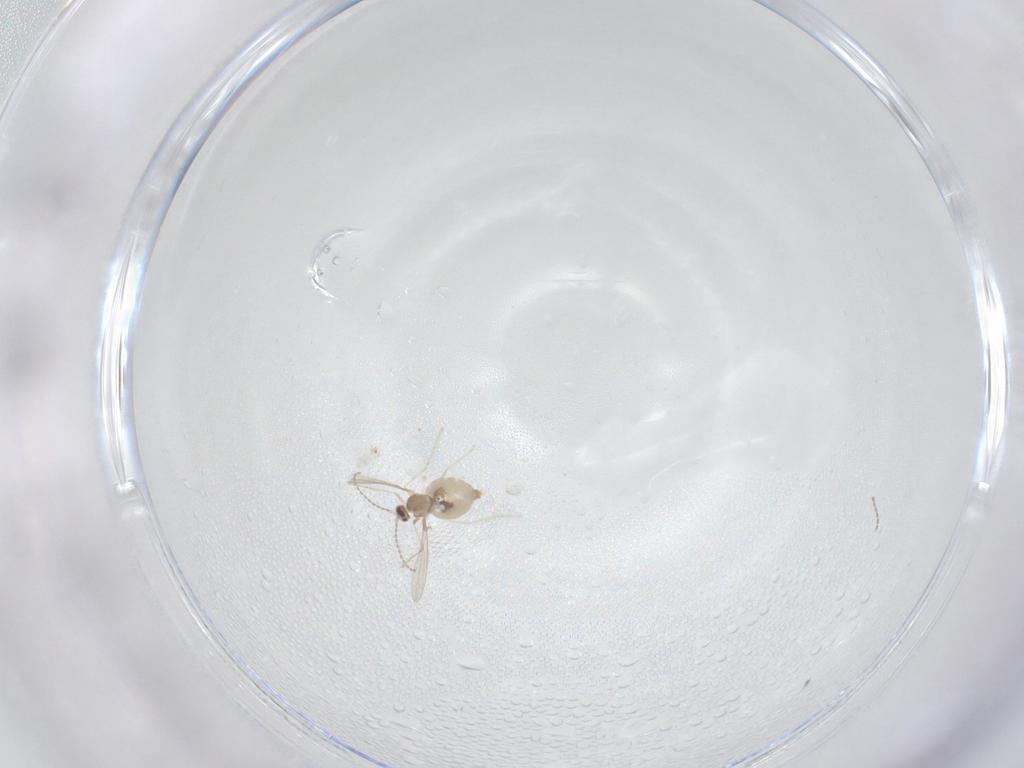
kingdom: Animalia
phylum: Arthropoda
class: Insecta
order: Diptera
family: Cecidomyiidae
